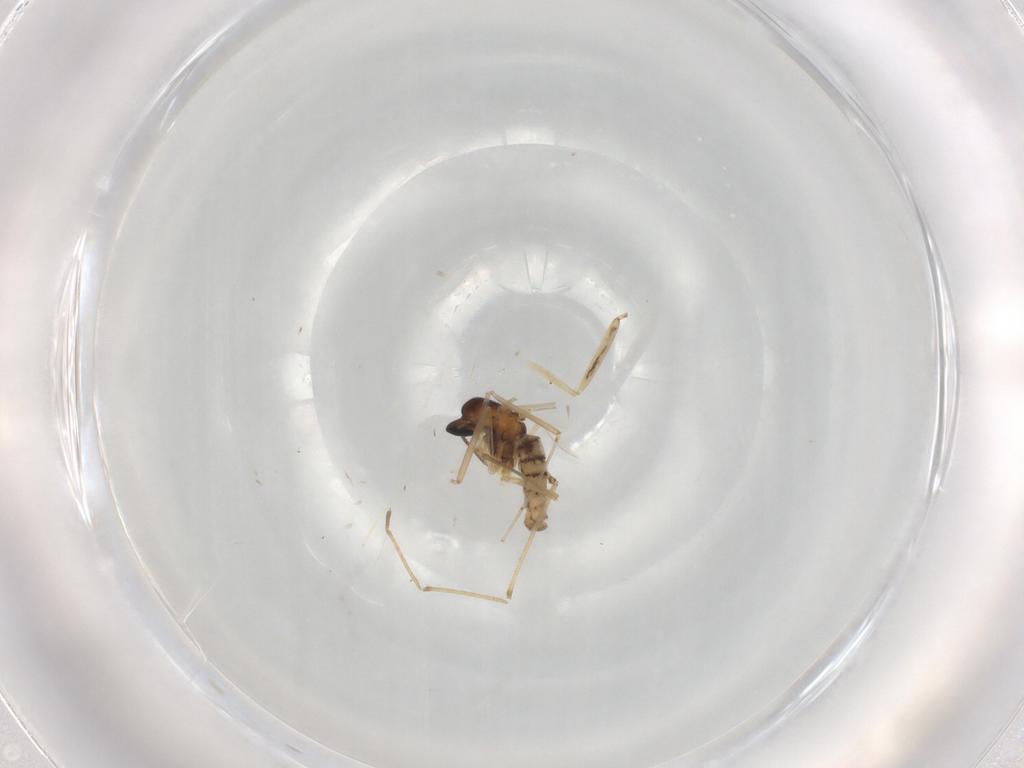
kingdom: Animalia
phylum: Arthropoda
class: Insecta
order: Diptera
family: Cecidomyiidae
